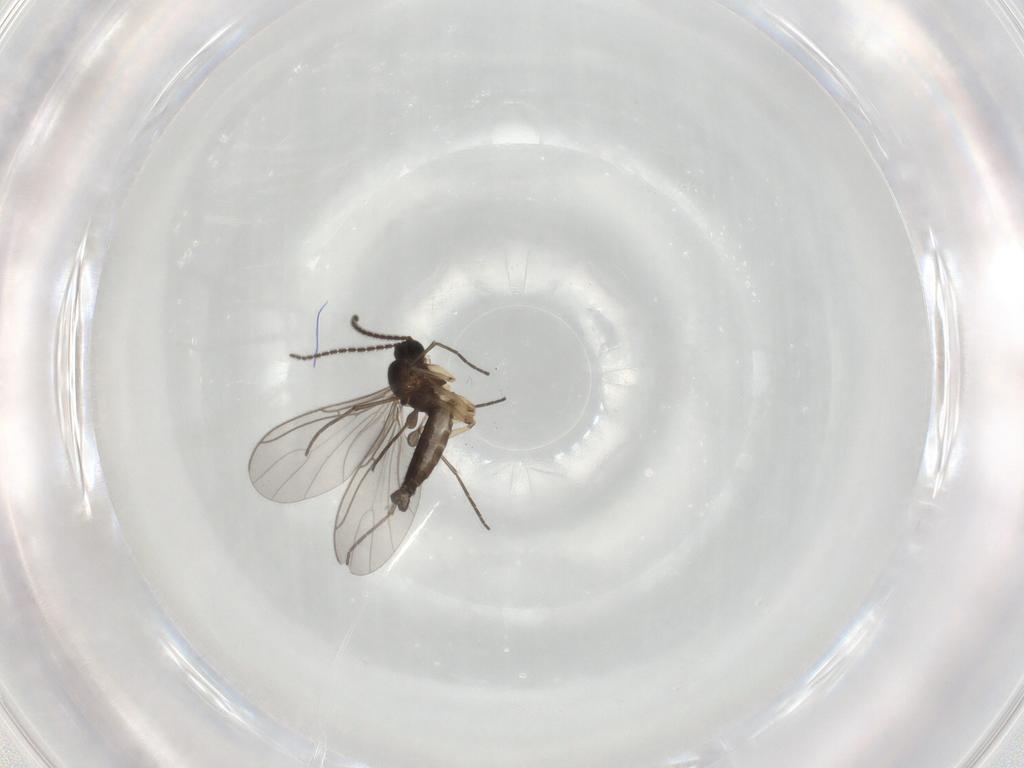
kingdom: Animalia
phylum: Arthropoda
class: Insecta
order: Diptera
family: Sciaridae
